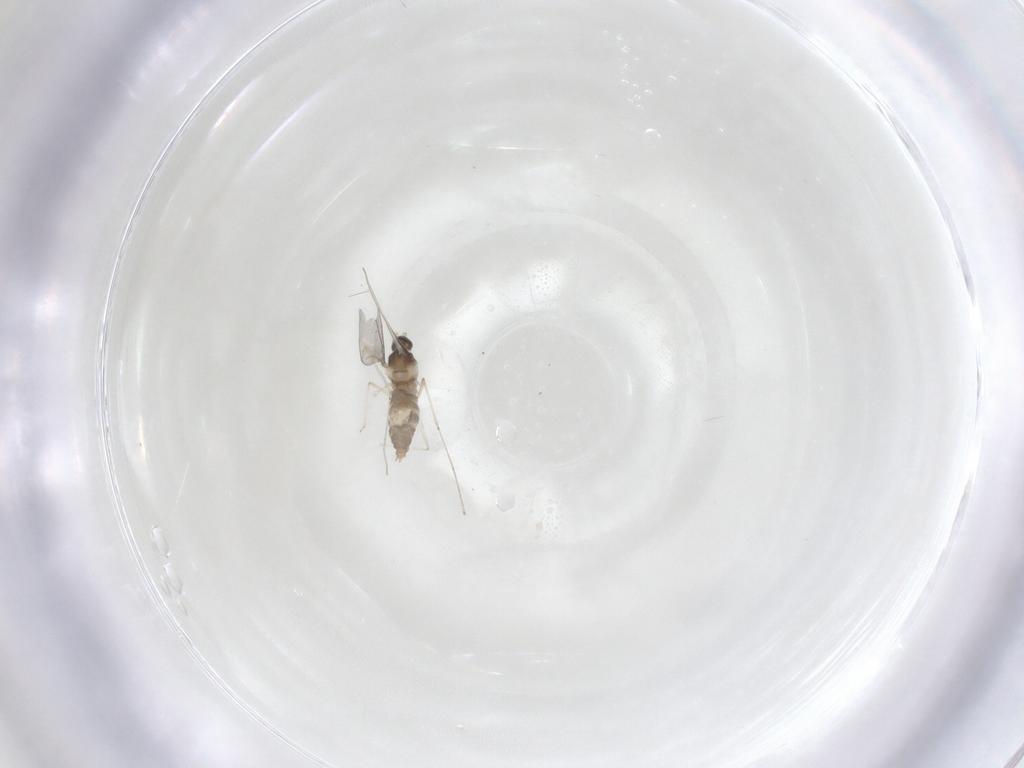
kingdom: Animalia
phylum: Arthropoda
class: Insecta
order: Diptera
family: Cecidomyiidae
